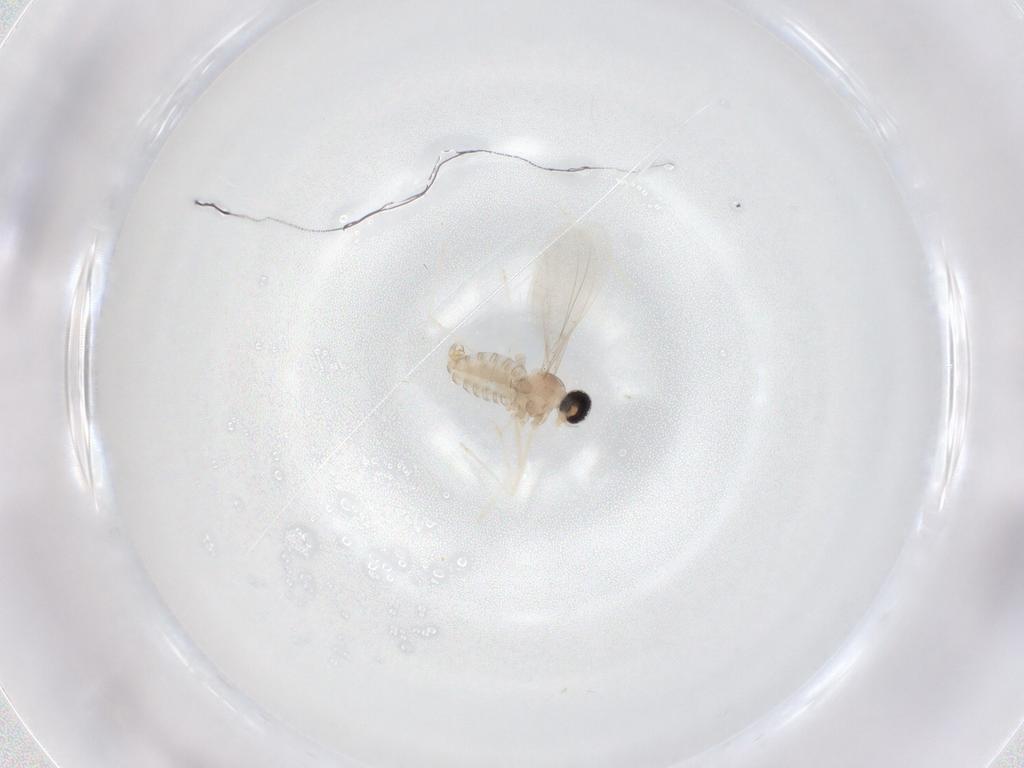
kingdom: Animalia
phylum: Arthropoda
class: Insecta
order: Diptera
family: Cecidomyiidae
